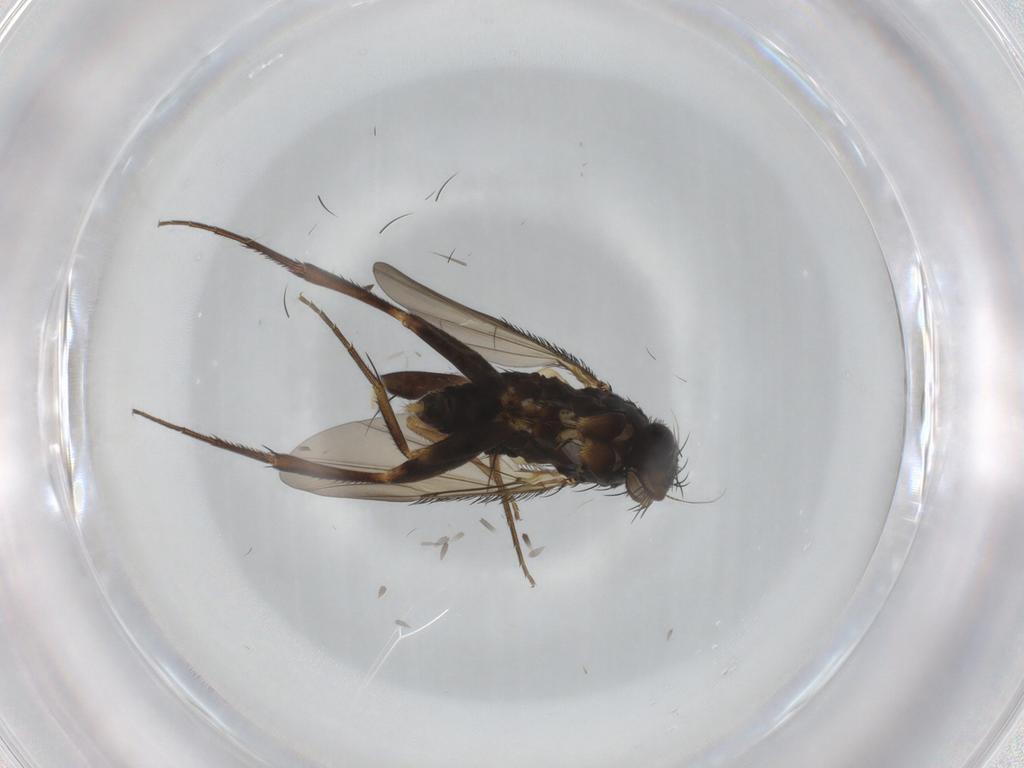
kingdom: Animalia
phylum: Arthropoda
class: Insecta
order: Diptera
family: Phoridae
